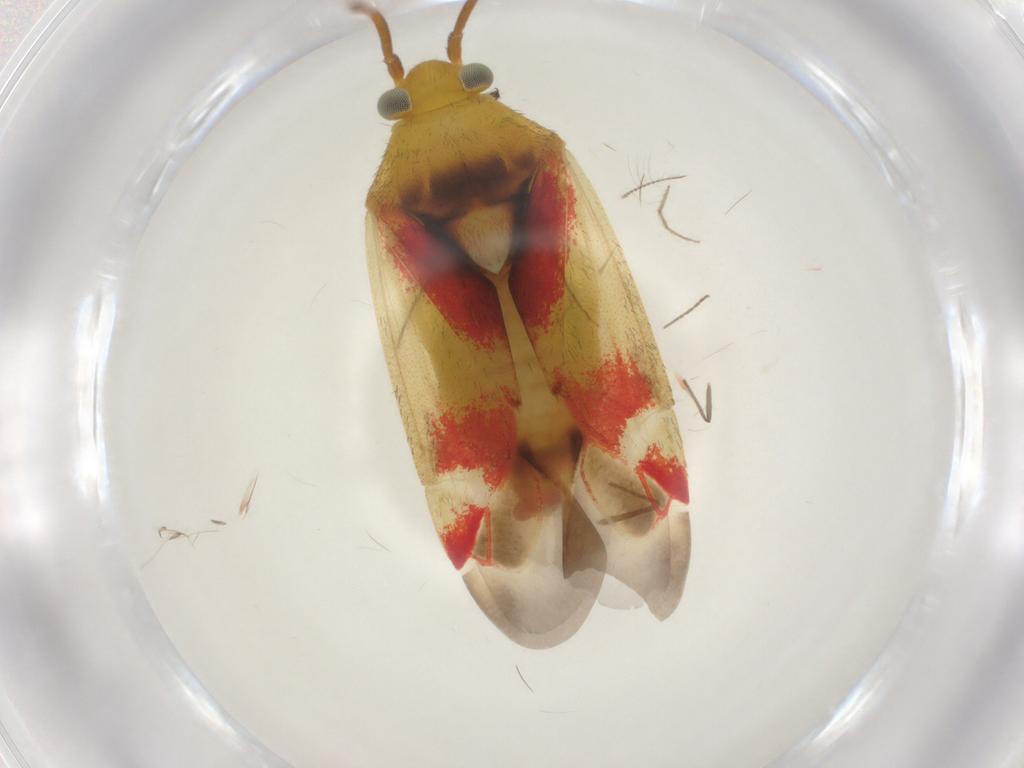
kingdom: Animalia
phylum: Arthropoda
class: Insecta
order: Hemiptera
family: Miridae
